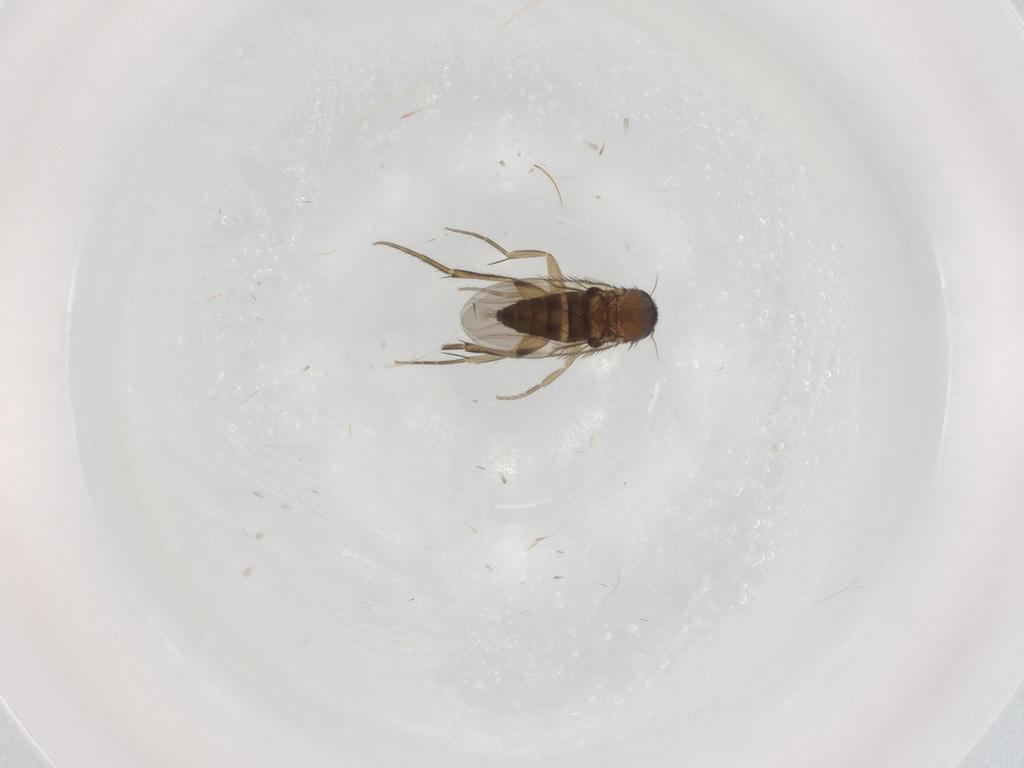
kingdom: Animalia
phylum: Arthropoda
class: Insecta
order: Diptera
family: Phoridae
